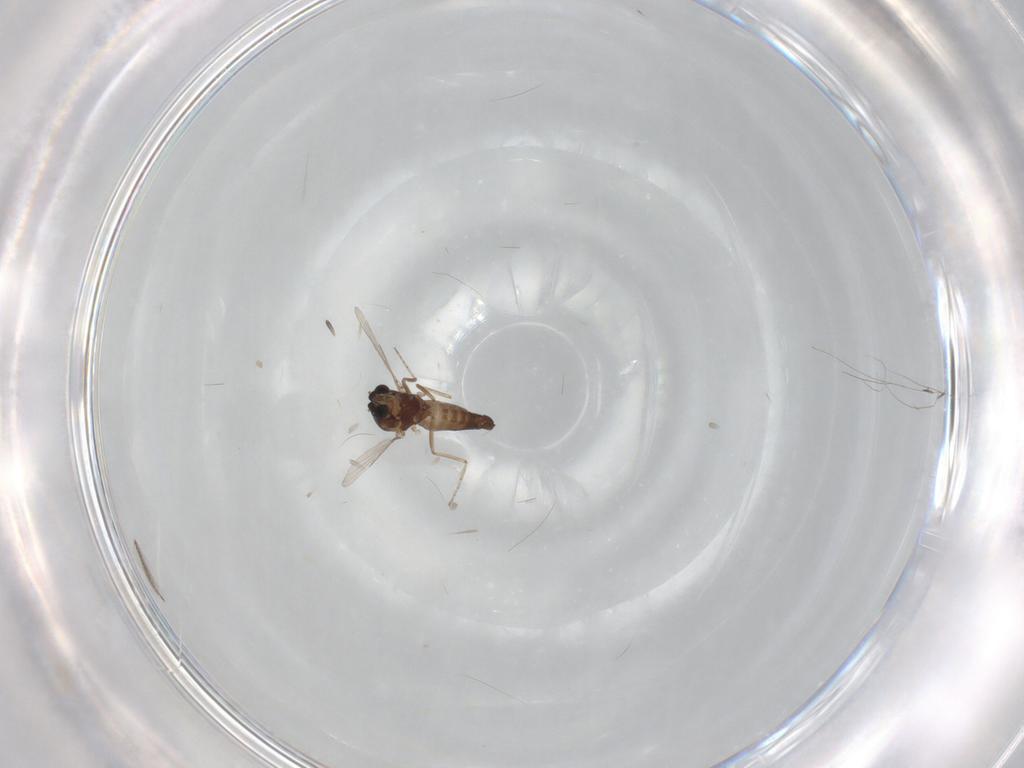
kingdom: Animalia
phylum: Arthropoda
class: Insecta
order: Diptera
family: Ceratopogonidae
